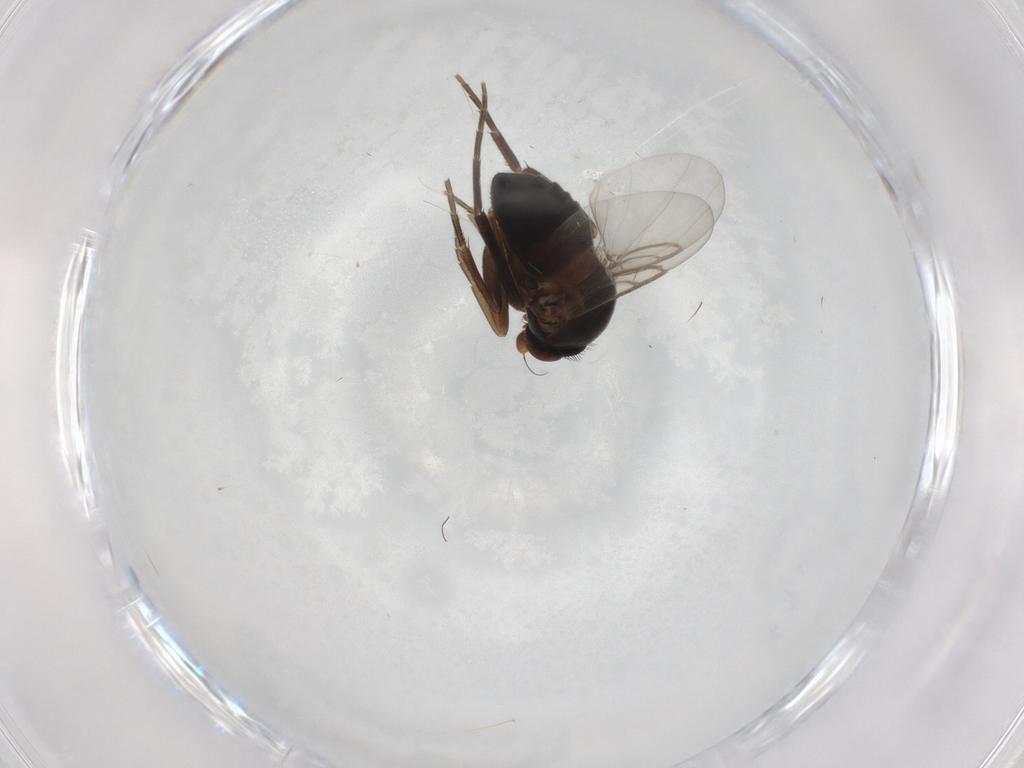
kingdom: Animalia
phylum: Arthropoda
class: Insecta
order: Diptera
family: Phoridae
